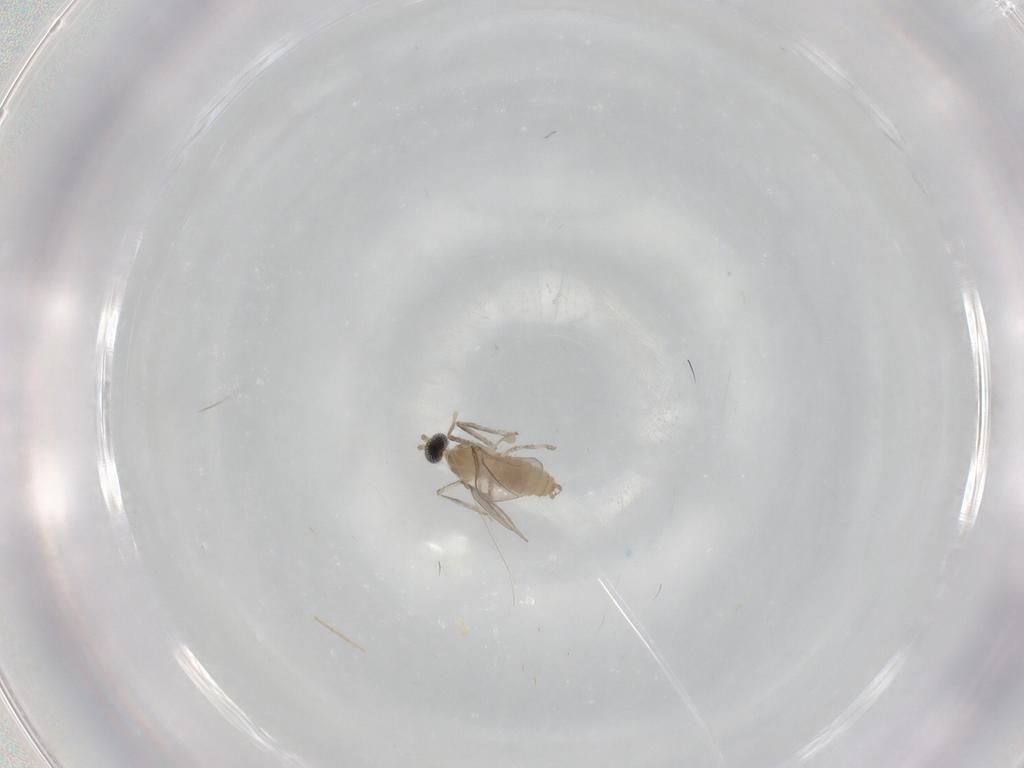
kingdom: Animalia
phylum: Arthropoda
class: Insecta
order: Diptera
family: Cecidomyiidae
